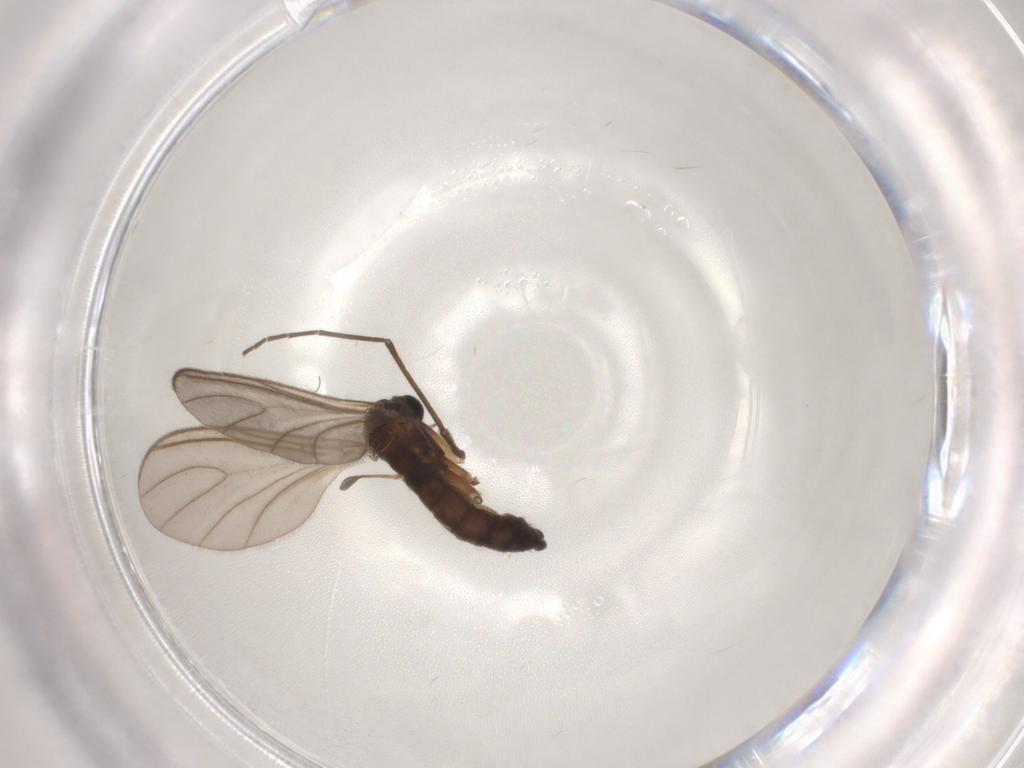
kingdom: Animalia
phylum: Arthropoda
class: Insecta
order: Diptera
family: Sciaridae
